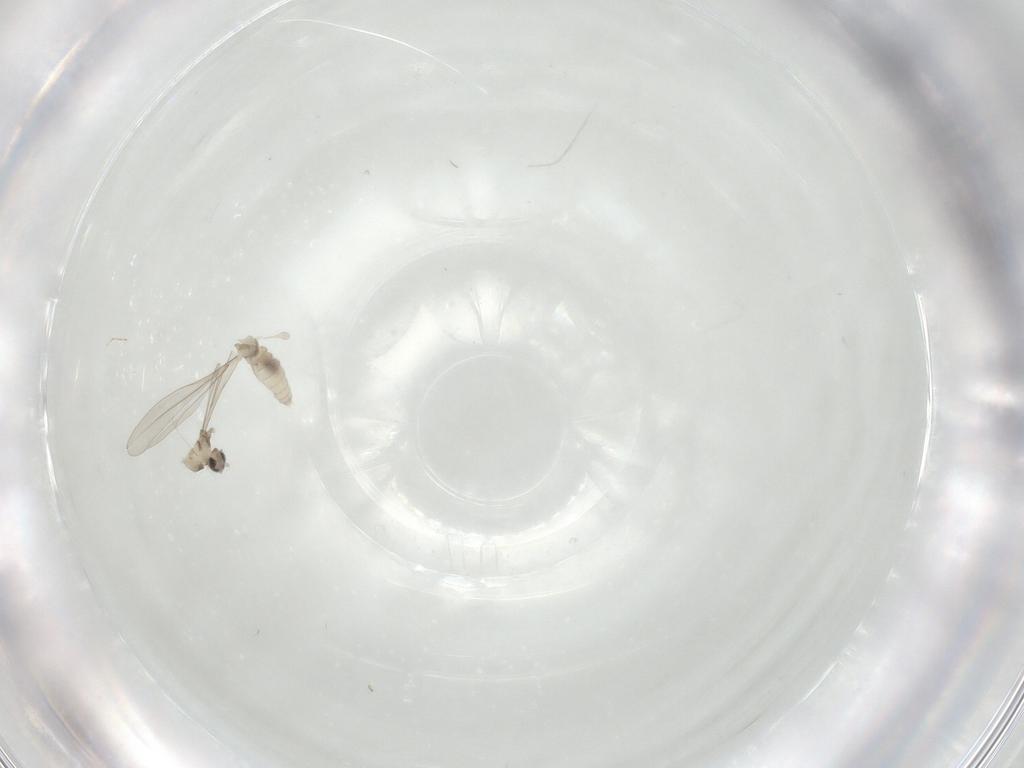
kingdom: Animalia
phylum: Arthropoda
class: Insecta
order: Diptera
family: Cecidomyiidae
